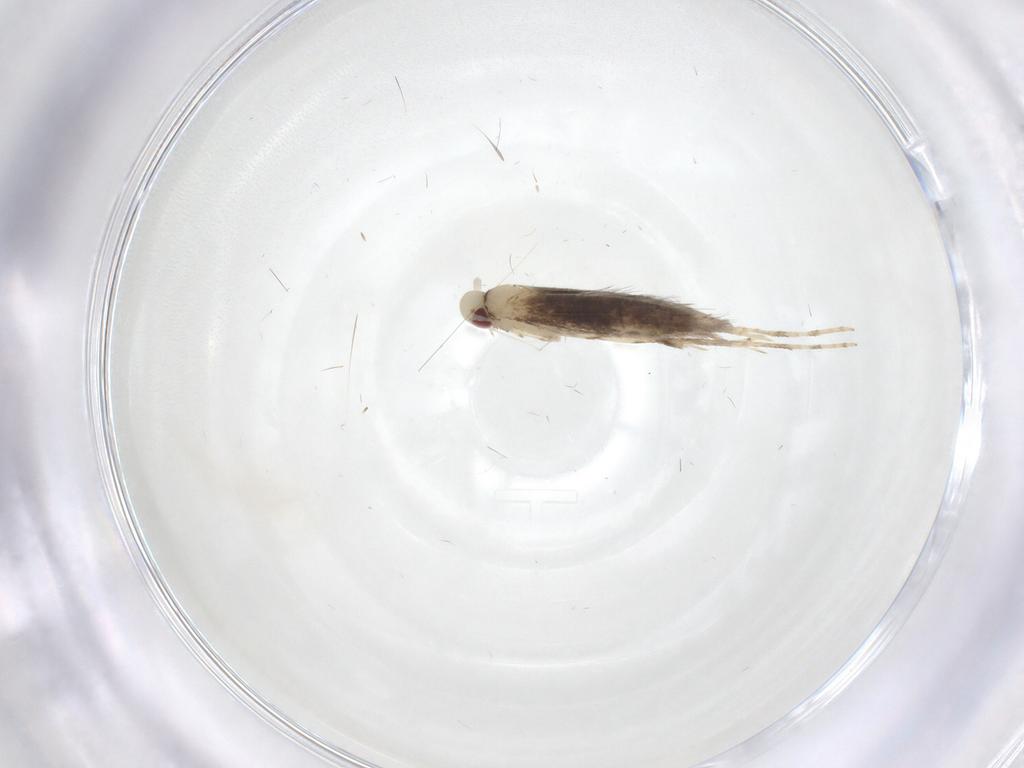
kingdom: Animalia
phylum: Arthropoda
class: Insecta
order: Lepidoptera
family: Gracillariidae
